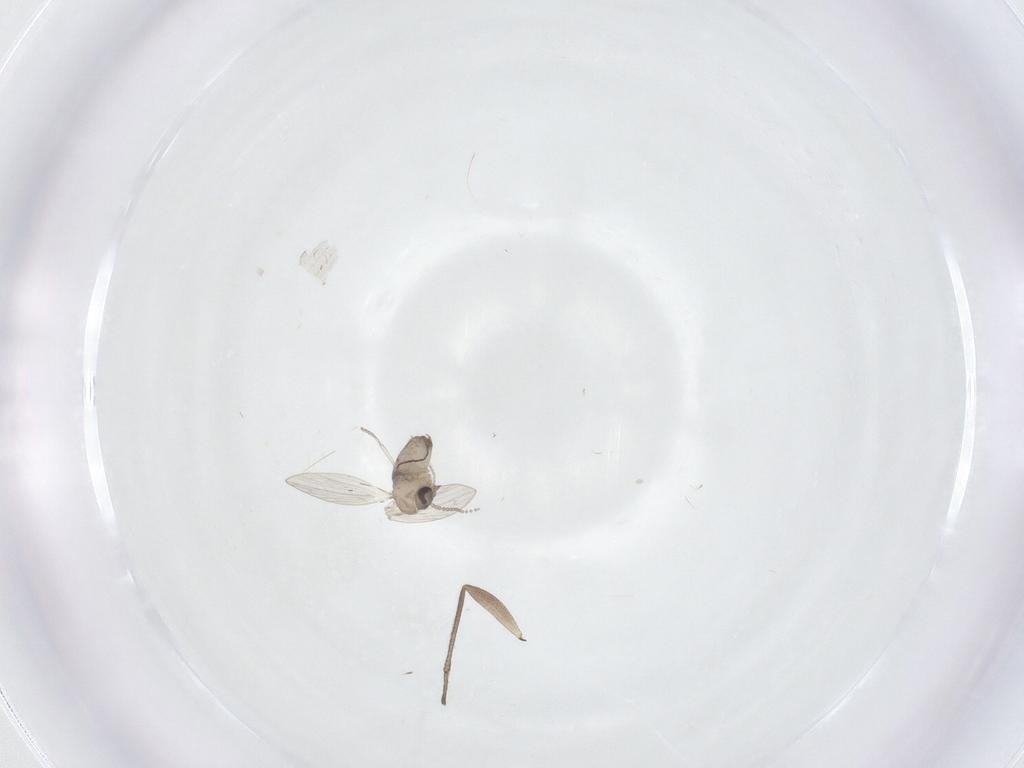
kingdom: Animalia
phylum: Arthropoda
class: Insecta
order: Diptera
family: Psychodidae
